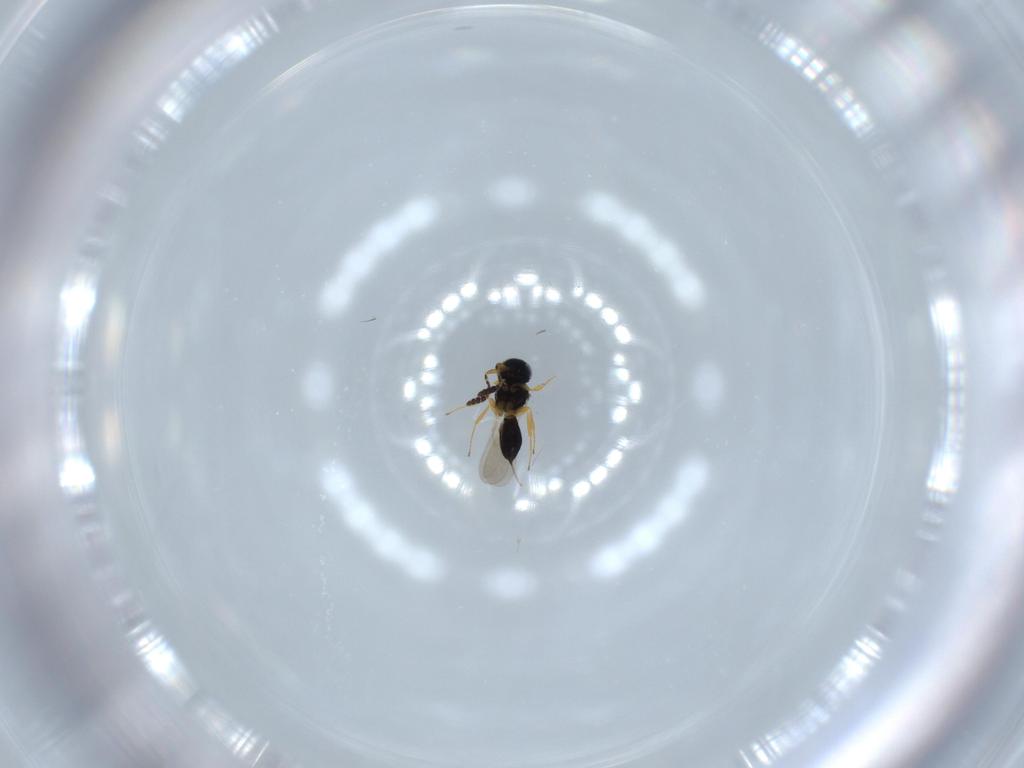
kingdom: Animalia
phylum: Arthropoda
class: Insecta
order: Hymenoptera
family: Scelionidae
